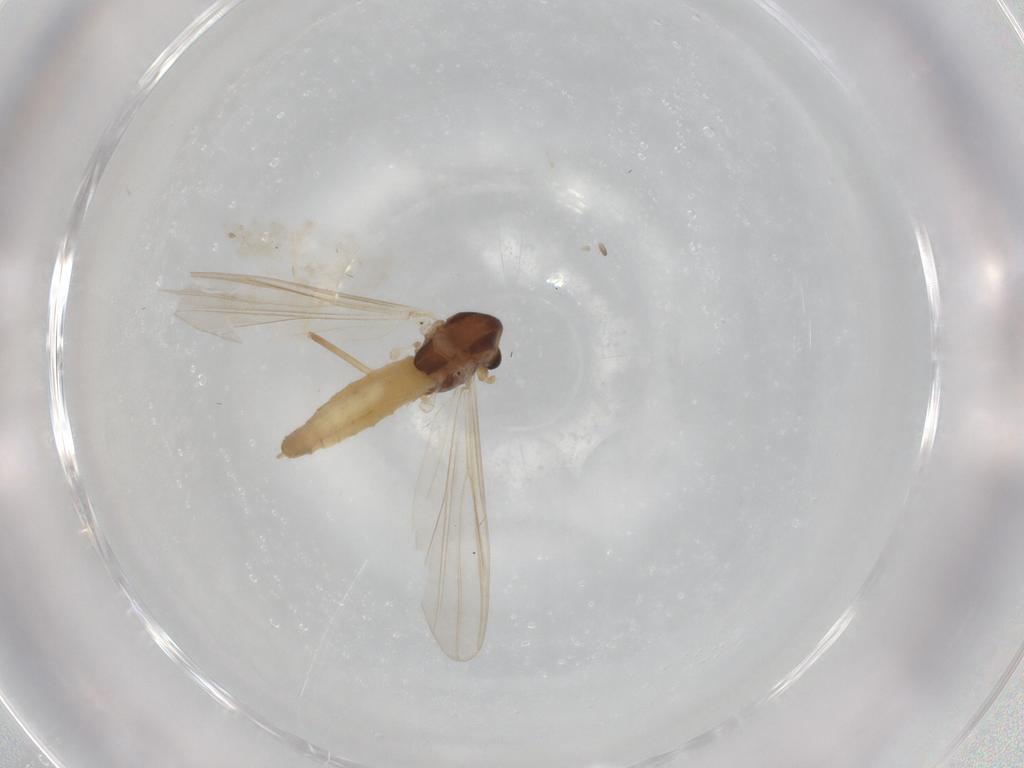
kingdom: Animalia
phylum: Arthropoda
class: Insecta
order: Diptera
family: Chironomidae
